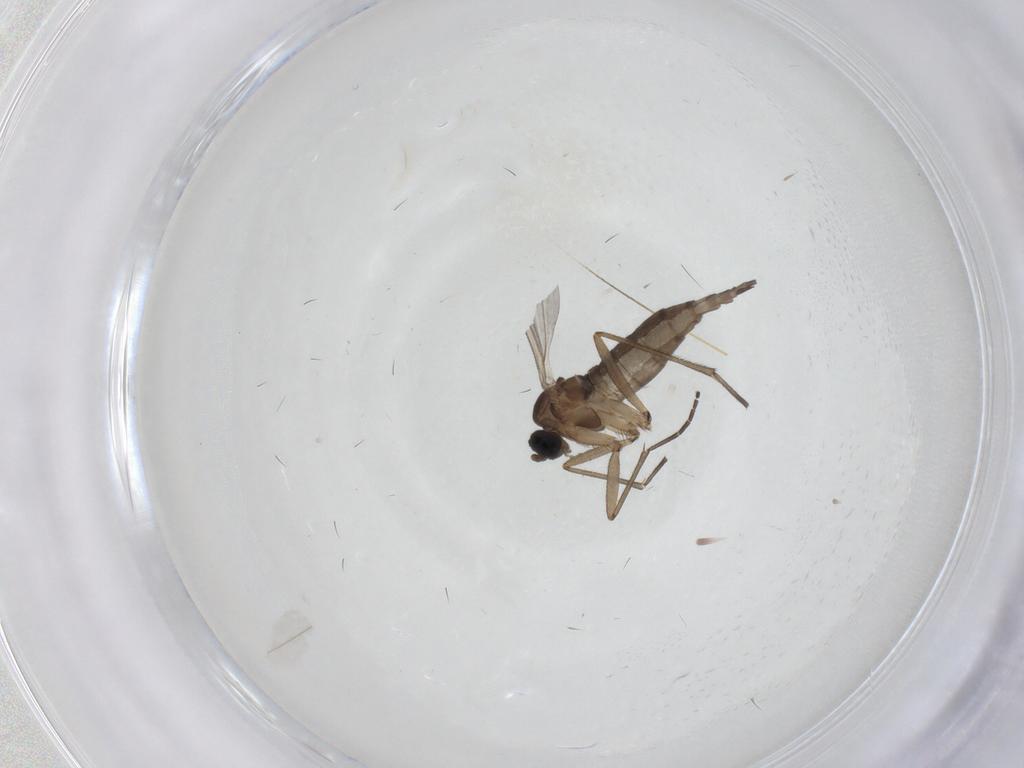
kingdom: Animalia
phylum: Arthropoda
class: Insecta
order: Diptera
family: Sciaridae
